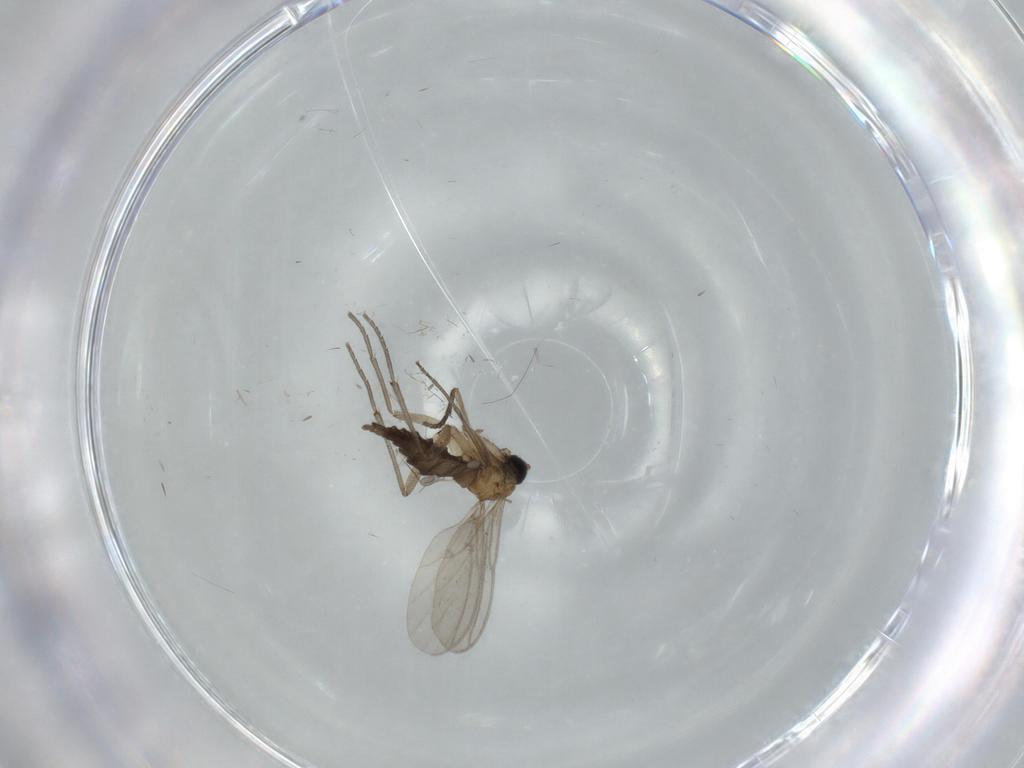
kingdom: Animalia
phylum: Arthropoda
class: Insecta
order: Diptera
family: Sciaridae
